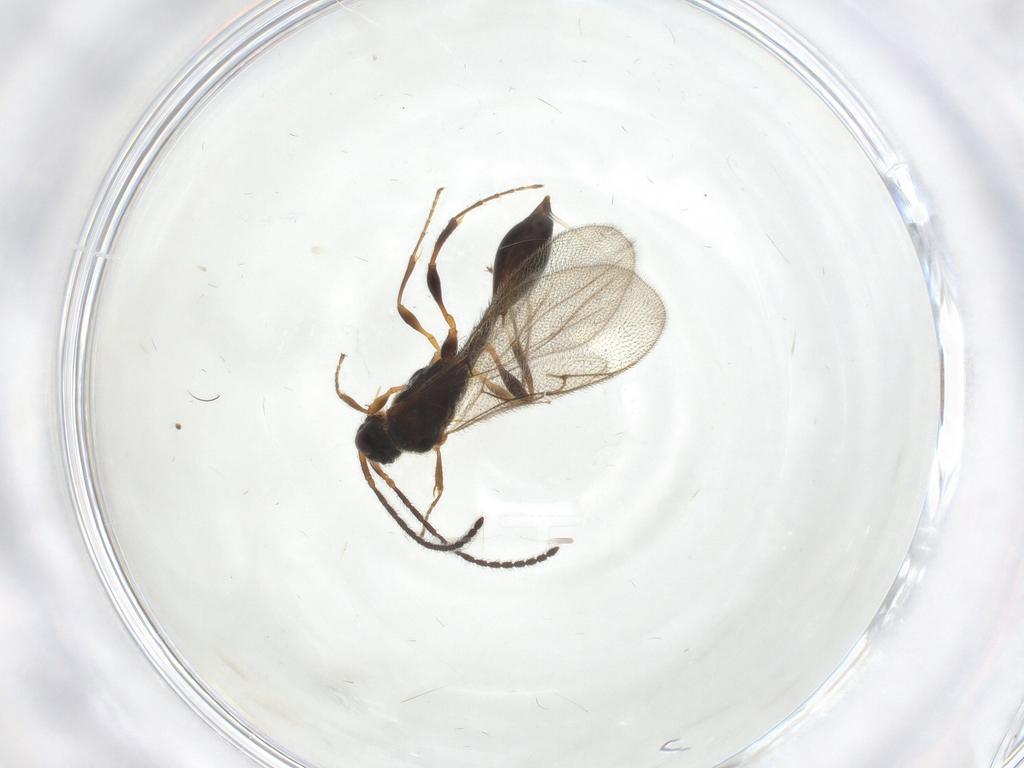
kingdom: Animalia
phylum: Arthropoda
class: Insecta
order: Hymenoptera
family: Diapriidae
